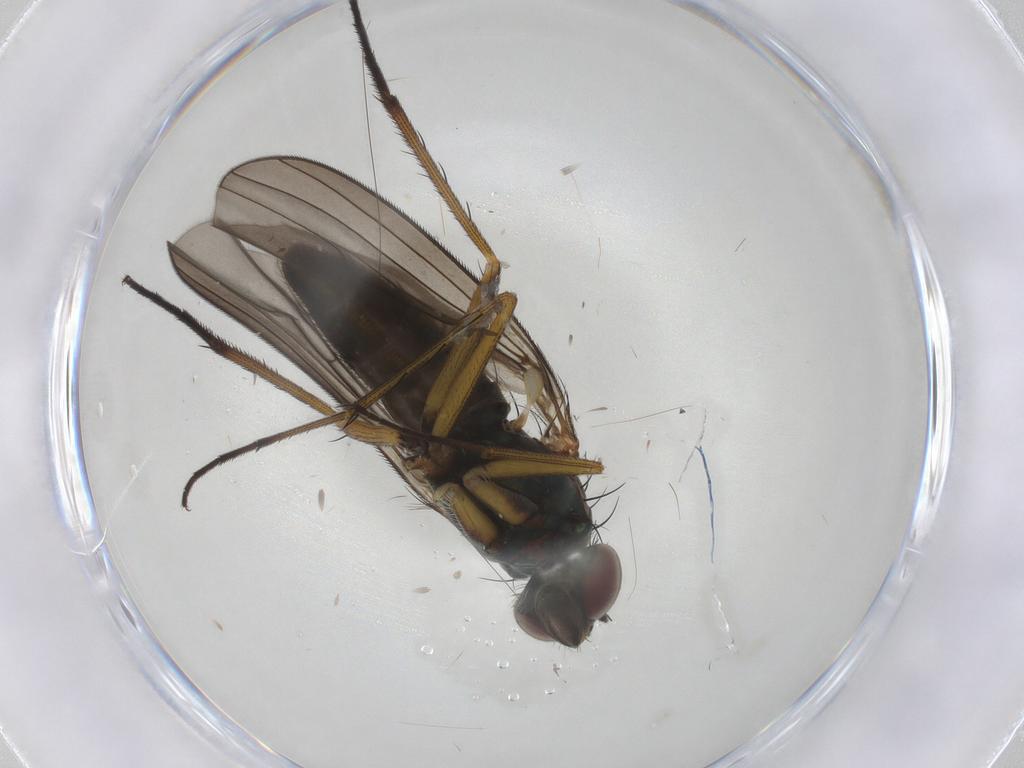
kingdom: Animalia
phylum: Arthropoda
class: Insecta
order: Diptera
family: Dolichopodidae
